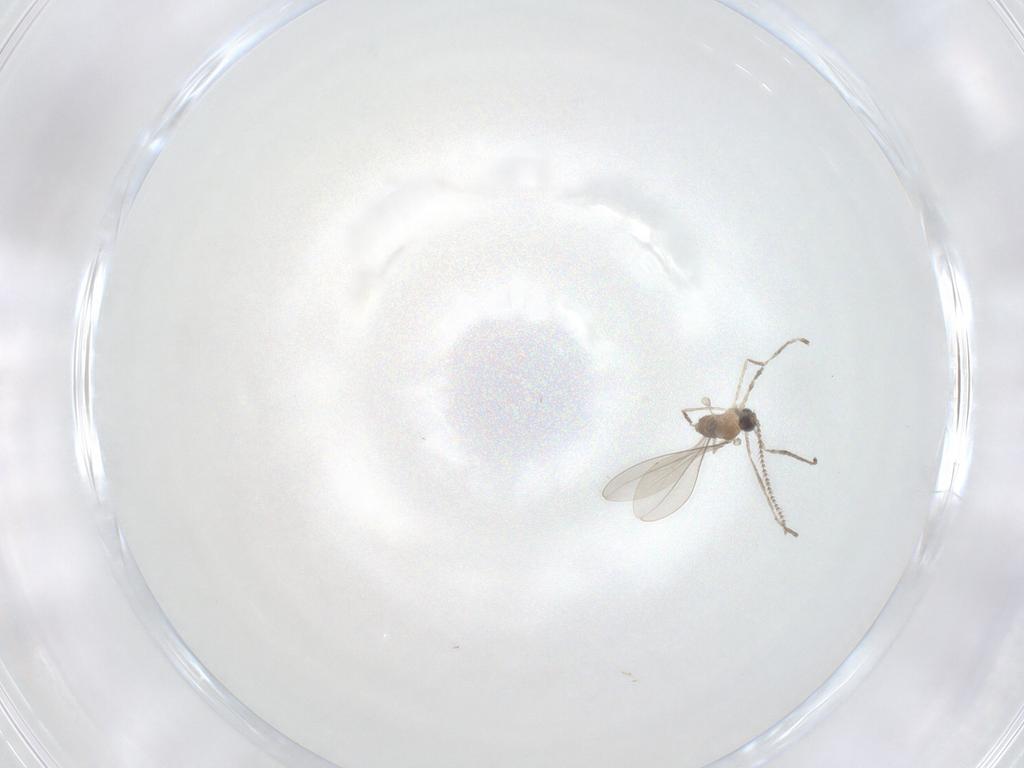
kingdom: Animalia
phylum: Arthropoda
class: Insecta
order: Diptera
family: Cecidomyiidae
